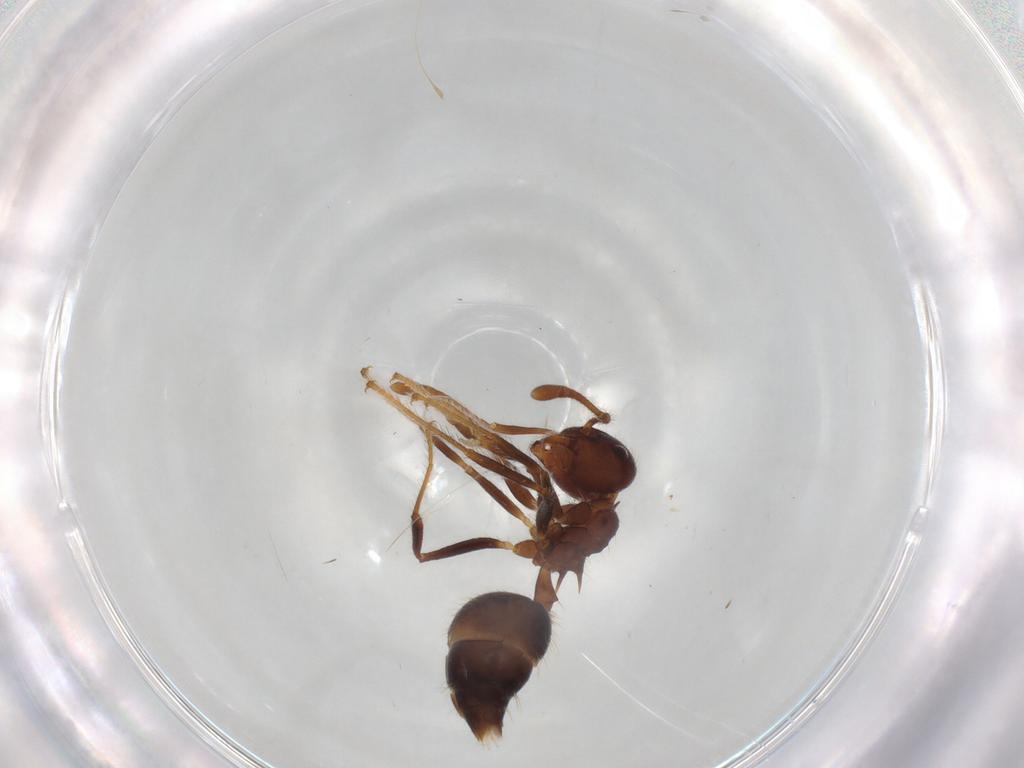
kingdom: Animalia
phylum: Arthropoda
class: Insecta
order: Hymenoptera
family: Formicidae
